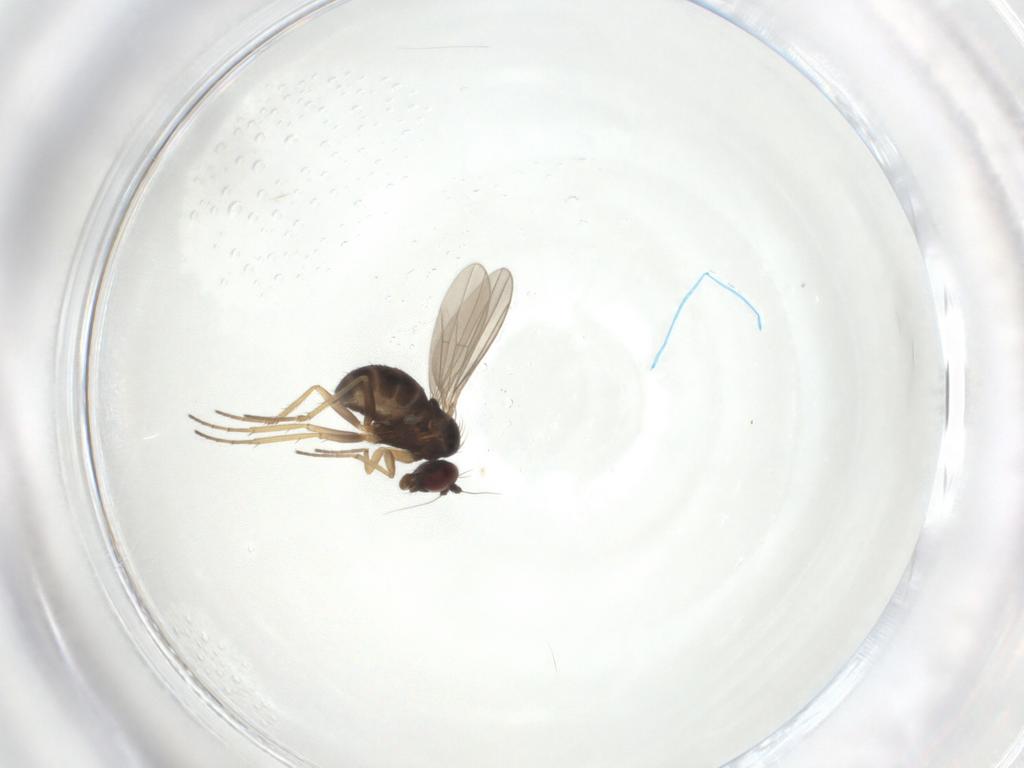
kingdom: Animalia
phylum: Arthropoda
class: Insecta
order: Diptera
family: Dolichopodidae
